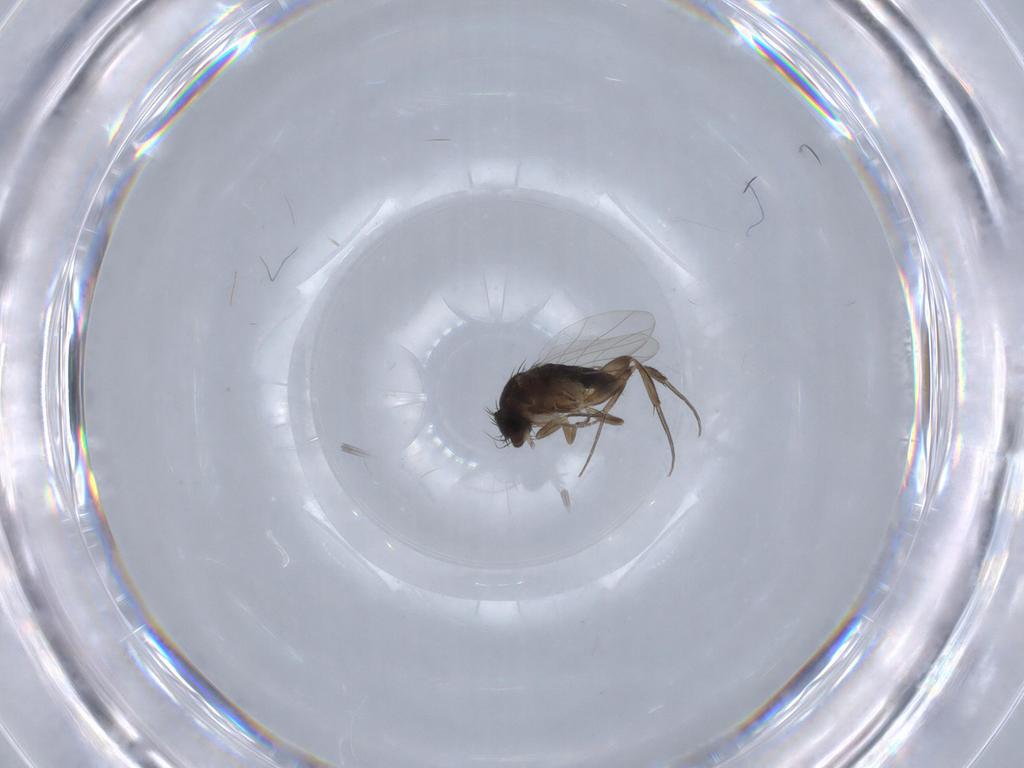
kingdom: Animalia
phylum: Arthropoda
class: Insecta
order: Diptera
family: Phoridae
